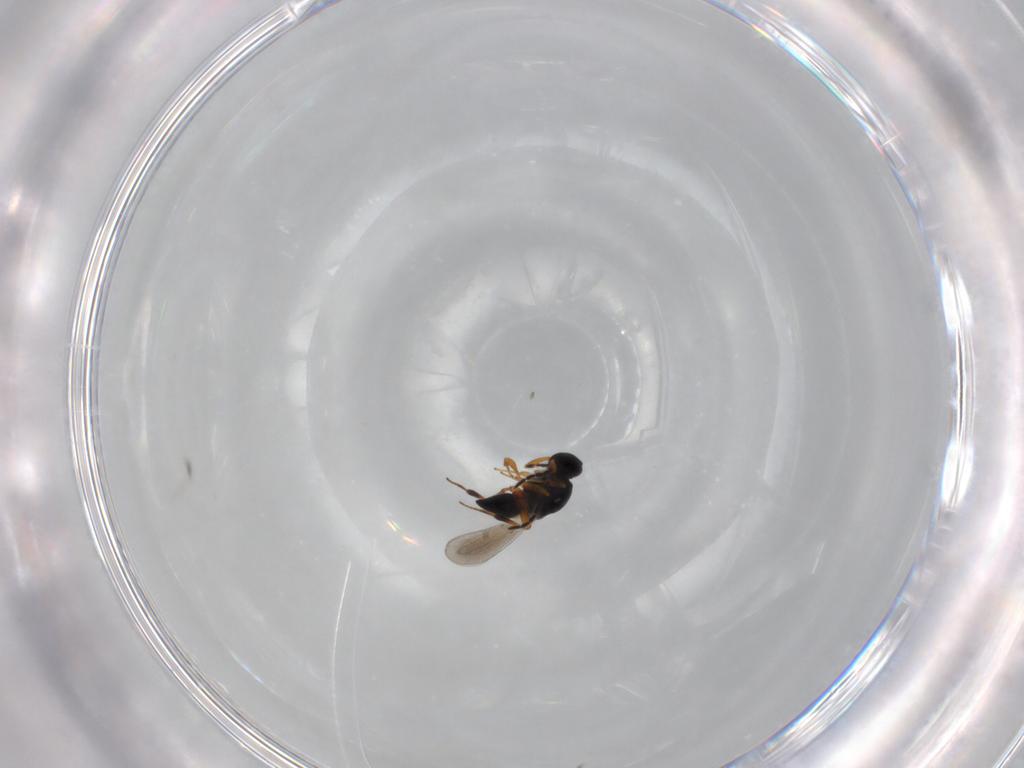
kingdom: Animalia
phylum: Arthropoda
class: Insecta
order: Hymenoptera
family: Platygastridae
